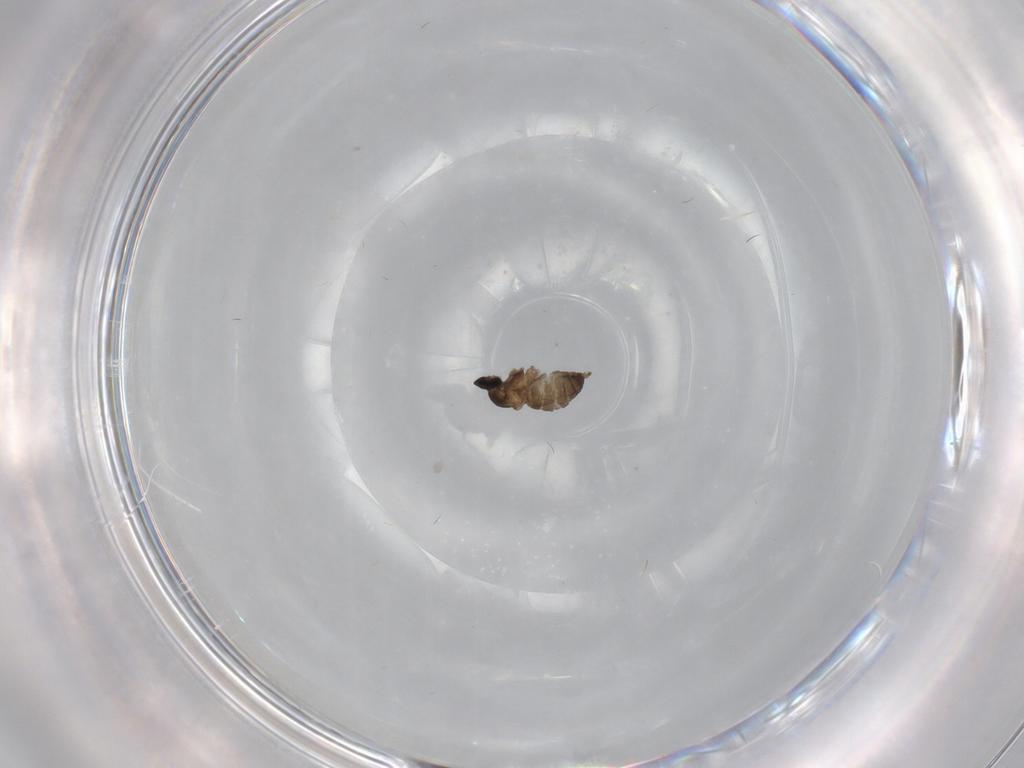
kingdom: Animalia
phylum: Arthropoda
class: Insecta
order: Diptera
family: Cecidomyiidae
